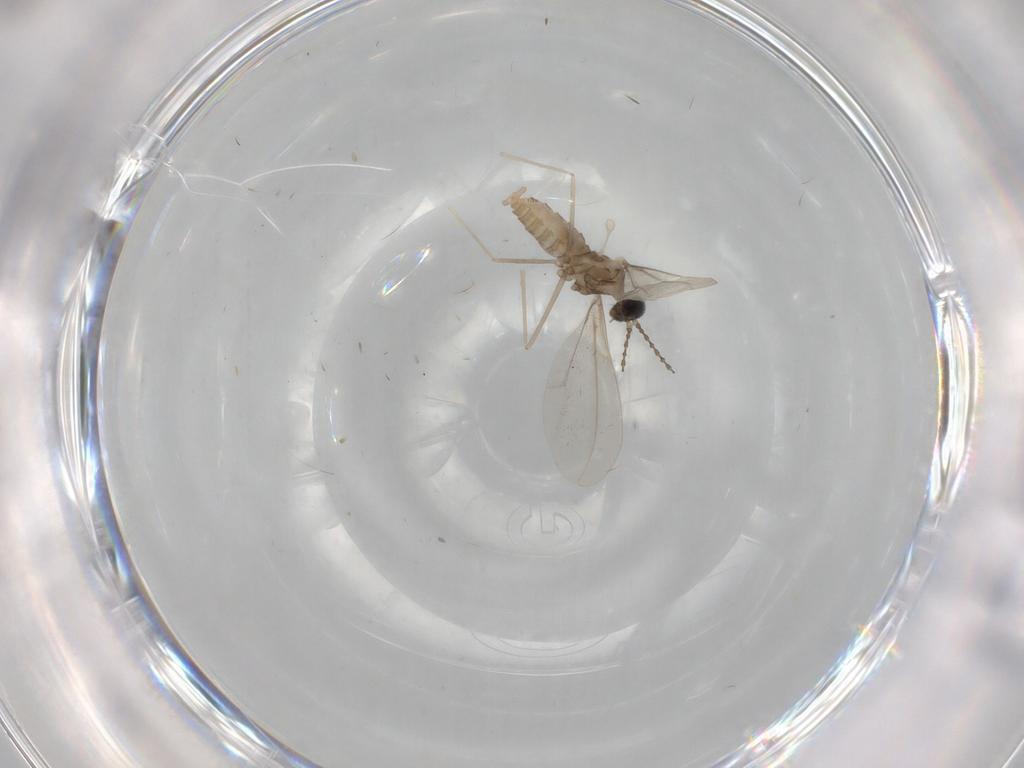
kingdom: Animalia
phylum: Arthropoda
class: Insecta
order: Diptera
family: Cecidomyiidae
